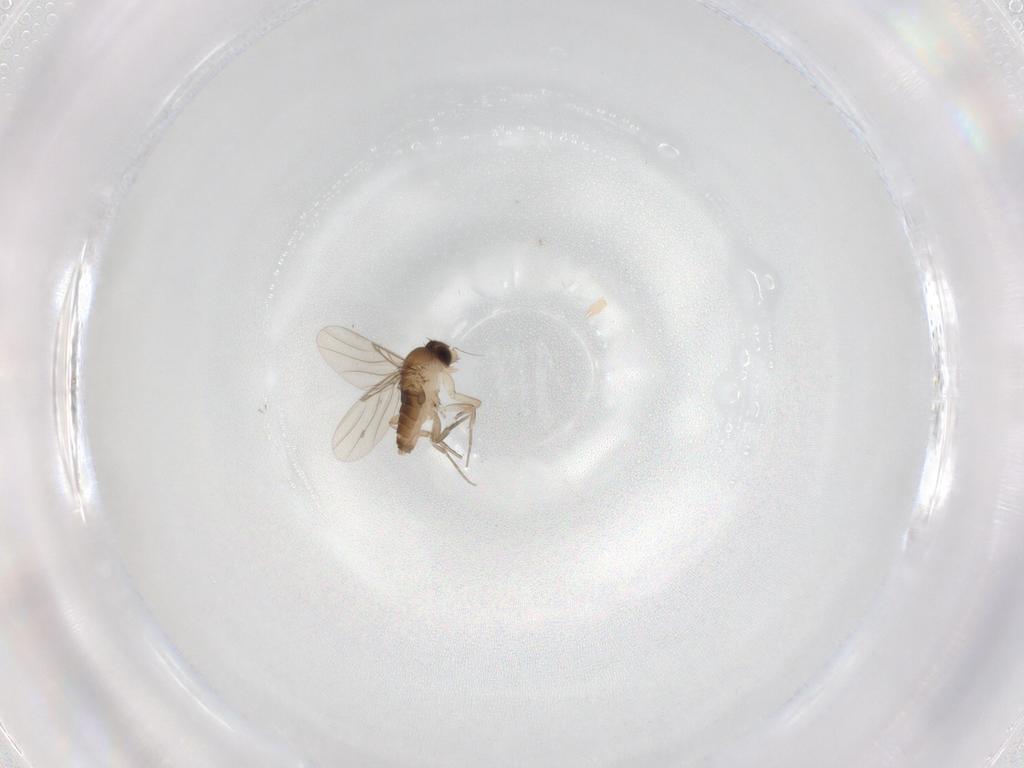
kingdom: Animalia
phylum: Arthropoda
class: Insecta
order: Diptera
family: Phoridae
